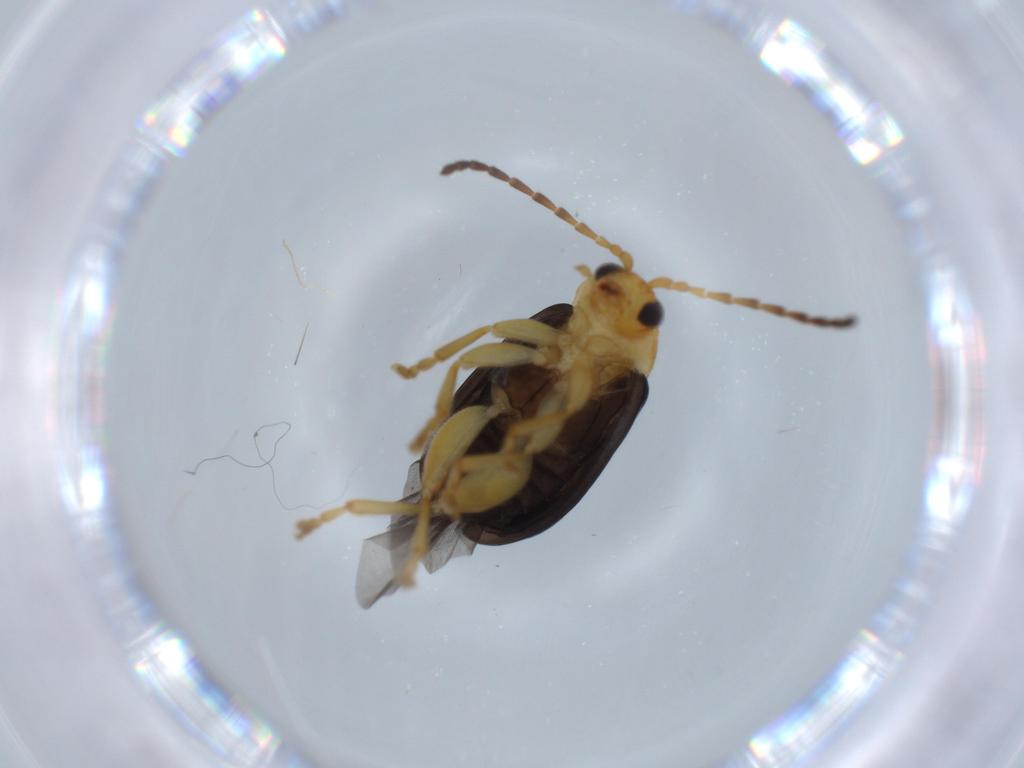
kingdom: Animalia
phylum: Arthropoda
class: Insecta
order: Coleoptera
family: Chrysomelidae
